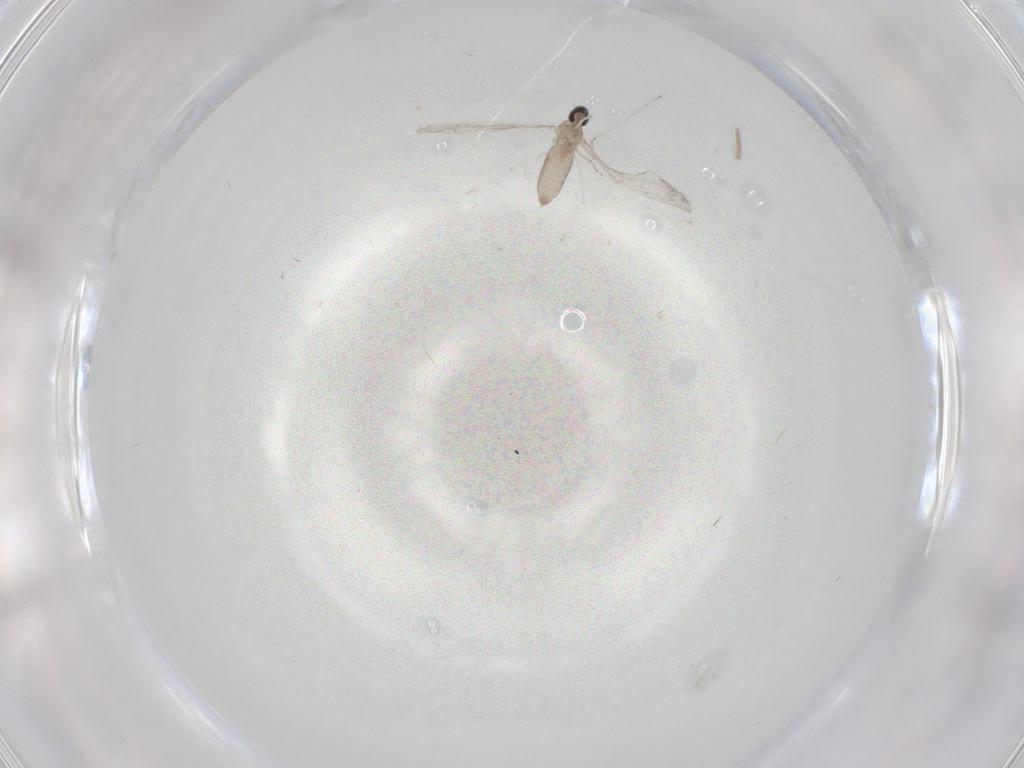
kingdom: Animalia
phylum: Arthropoda
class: Insecta
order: Diptera
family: Cecidomyiidae
